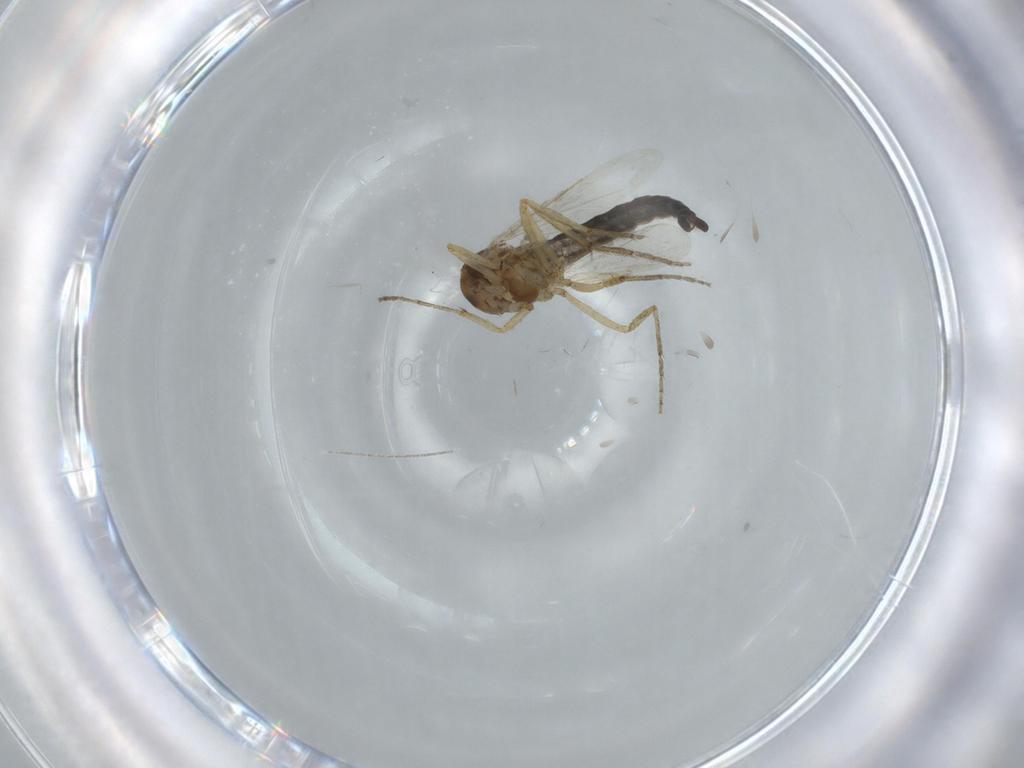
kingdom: Animalia
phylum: Arthropoda
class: Insecta
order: Diptera
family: Ceratopogonidae
